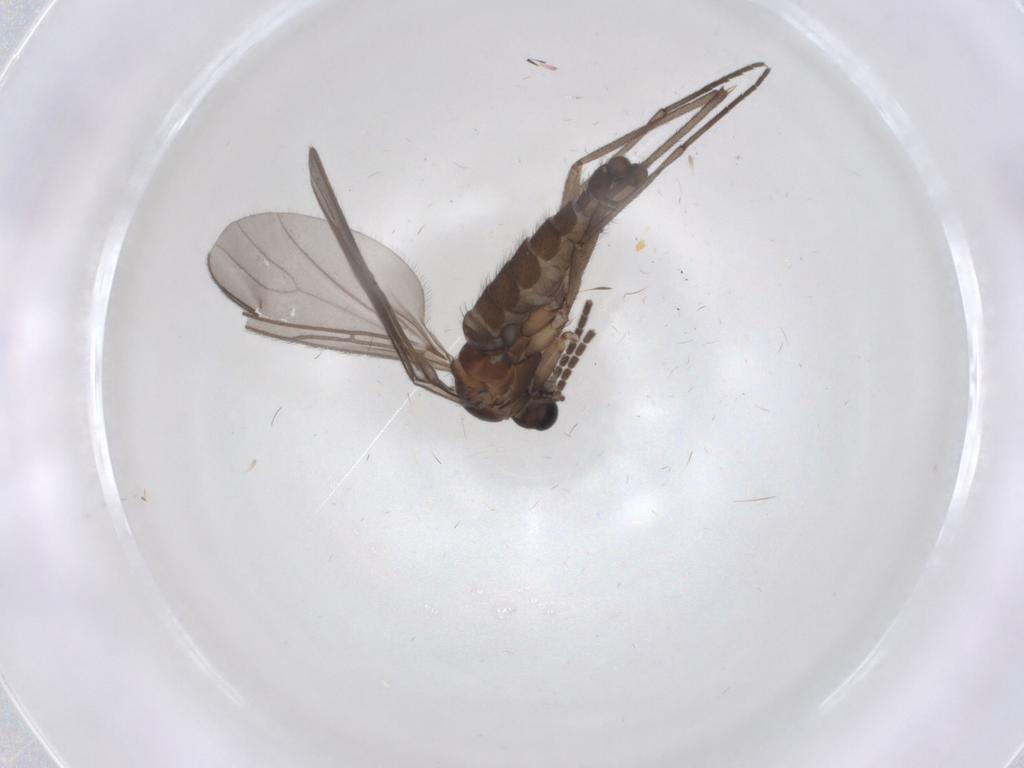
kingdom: Animalia
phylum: Arthropoda
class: Insecta
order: Diptera
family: Sciaridae
